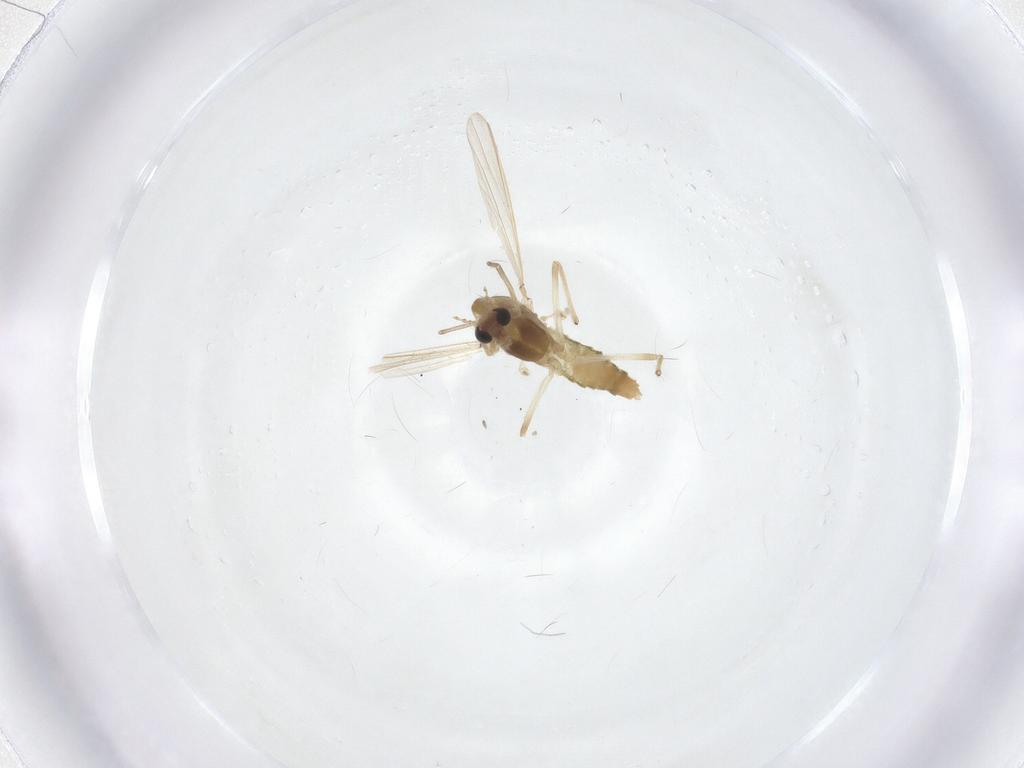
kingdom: Animalia
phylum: Arthropoda
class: Insecta
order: Diptera
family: Chironomidae
